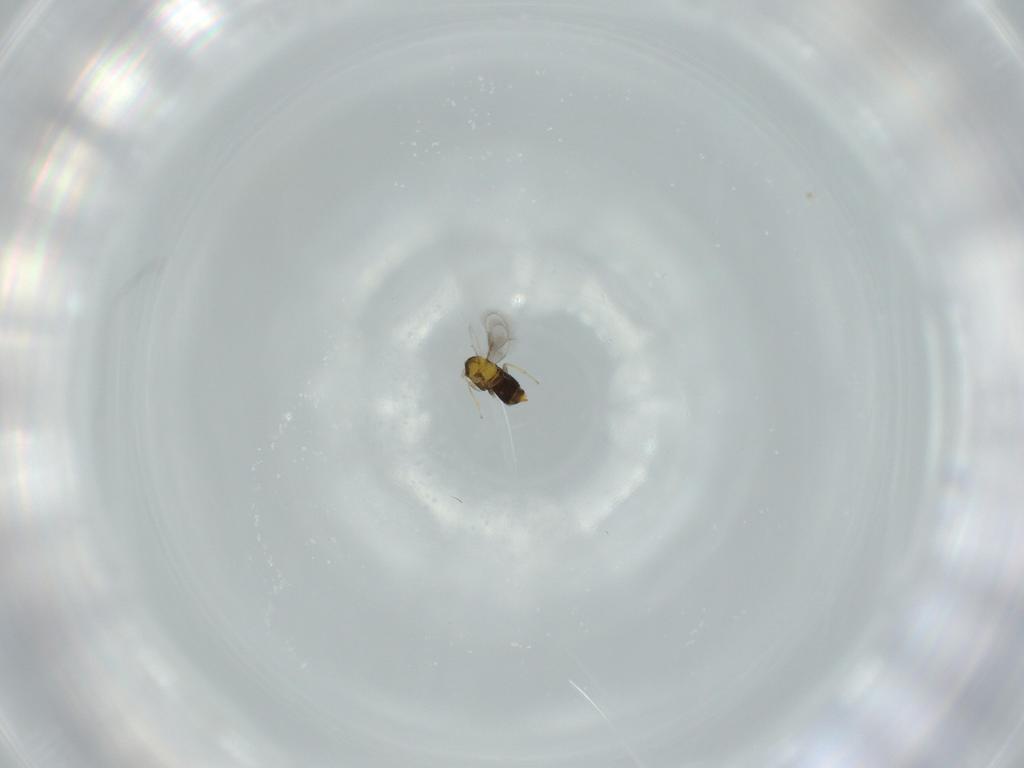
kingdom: Animalia
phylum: Arthropoda
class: Insecta
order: Hymenoptera
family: Aphelinidae
